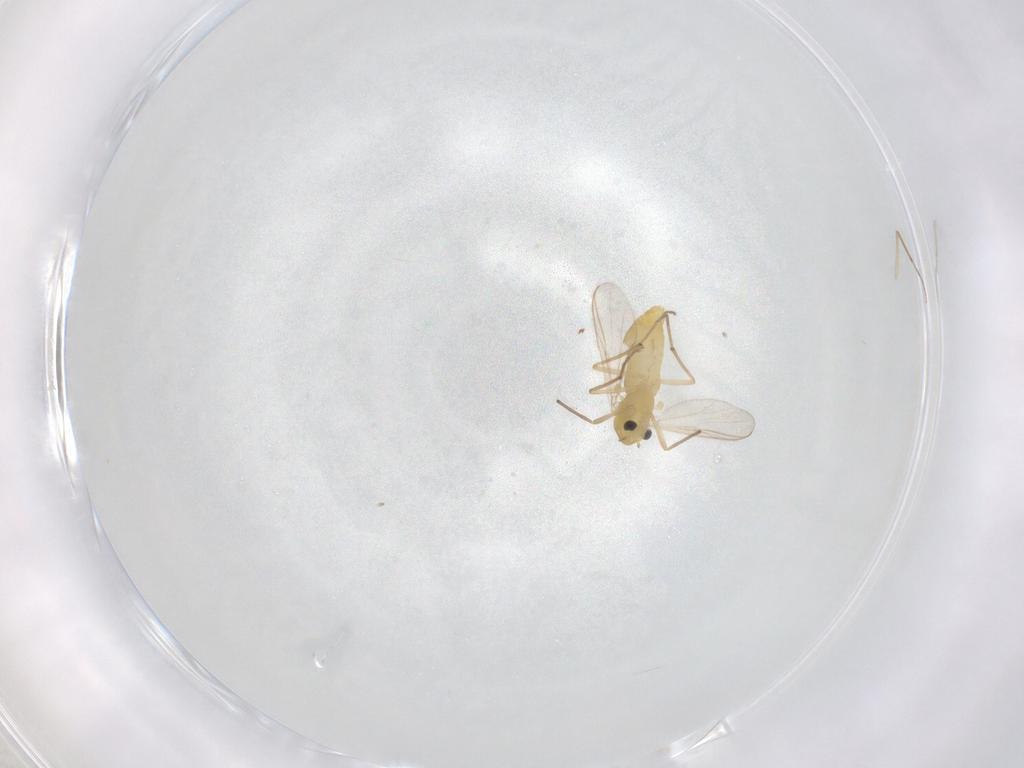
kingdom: Animalia
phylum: Arthropoda
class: Insecta
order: Diptera
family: Chironomidae
